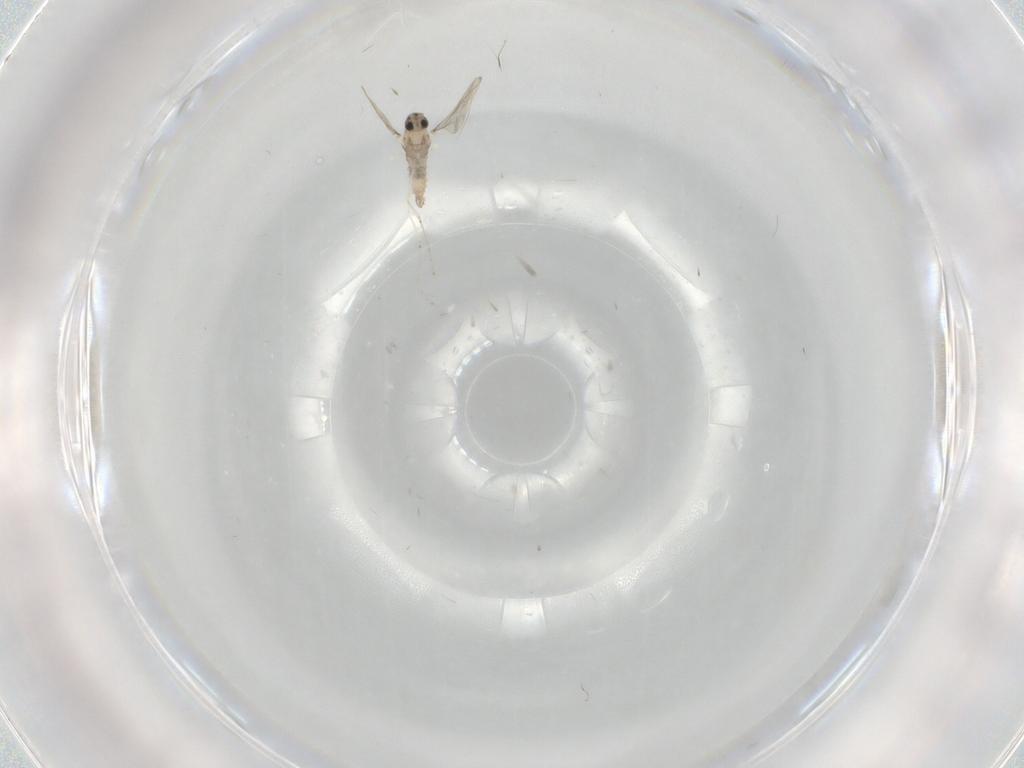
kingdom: Animalia
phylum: Arthropoda
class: Insecta
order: Diptera
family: Cecidomyiidae
